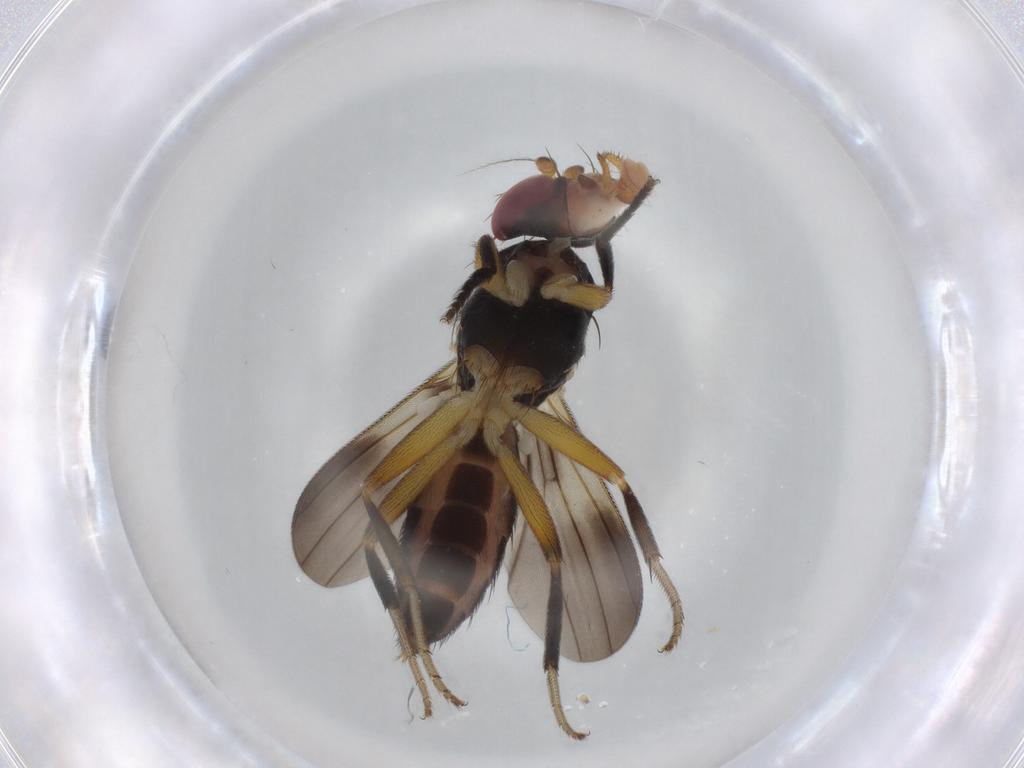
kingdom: Animalia
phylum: Arthropoda
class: Insecta
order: Diptera
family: Clusiidae
